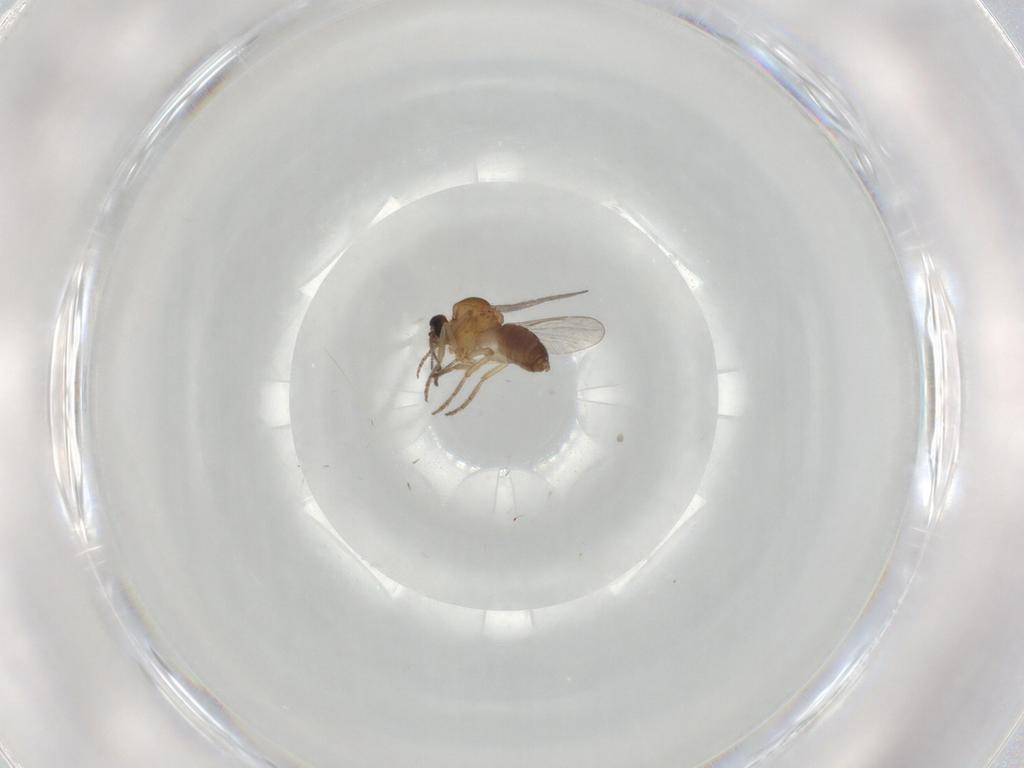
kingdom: Animalia
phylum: Arthropoda
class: Insecta
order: Diptera
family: Ceratopogonidae
